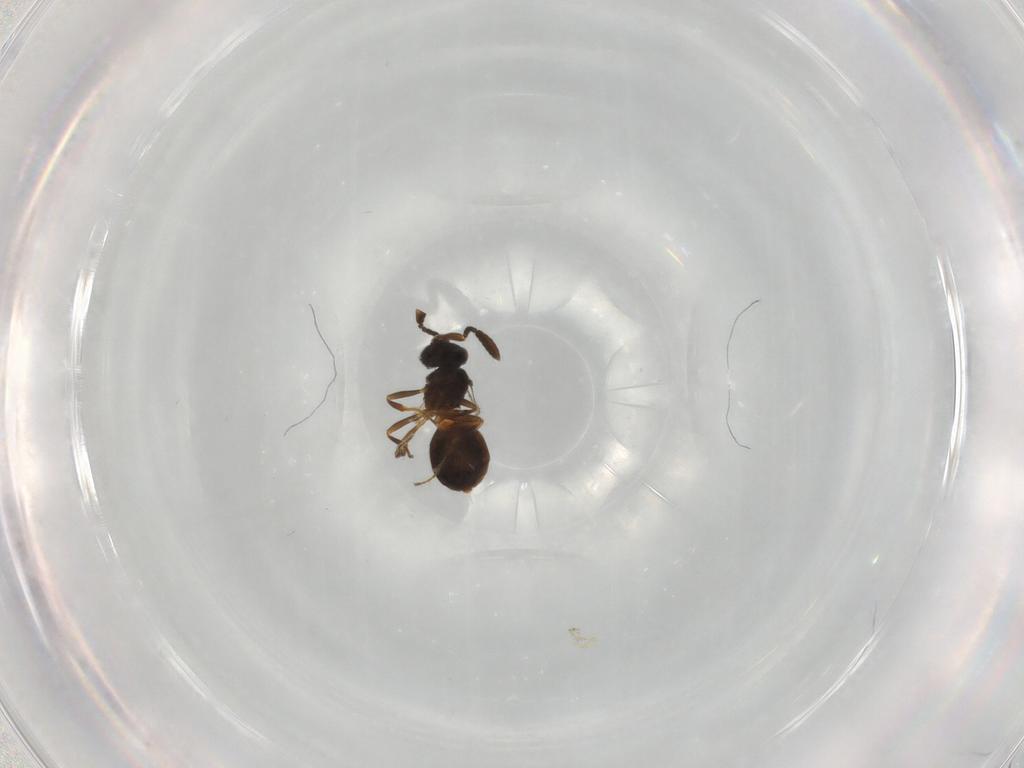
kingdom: Animalia
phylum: Arthropoda
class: Insecta
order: Hymenoptera
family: Scelionidae
